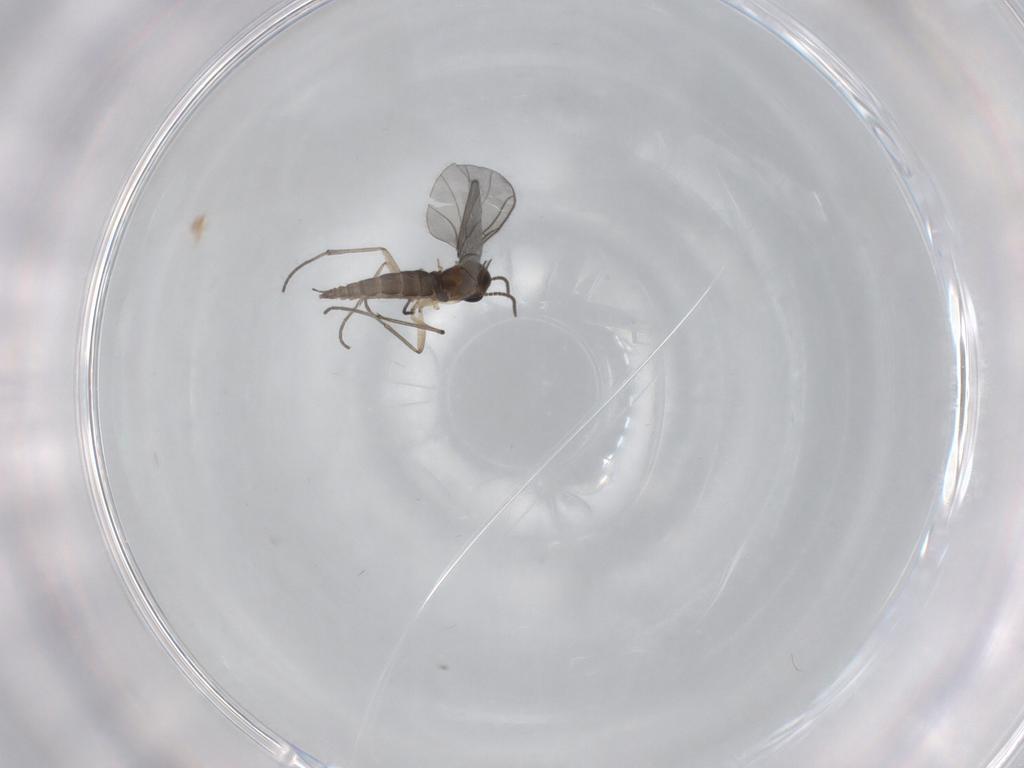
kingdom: Animalia
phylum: Arthropoda
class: Insecta
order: Diptera
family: Sciaridae
